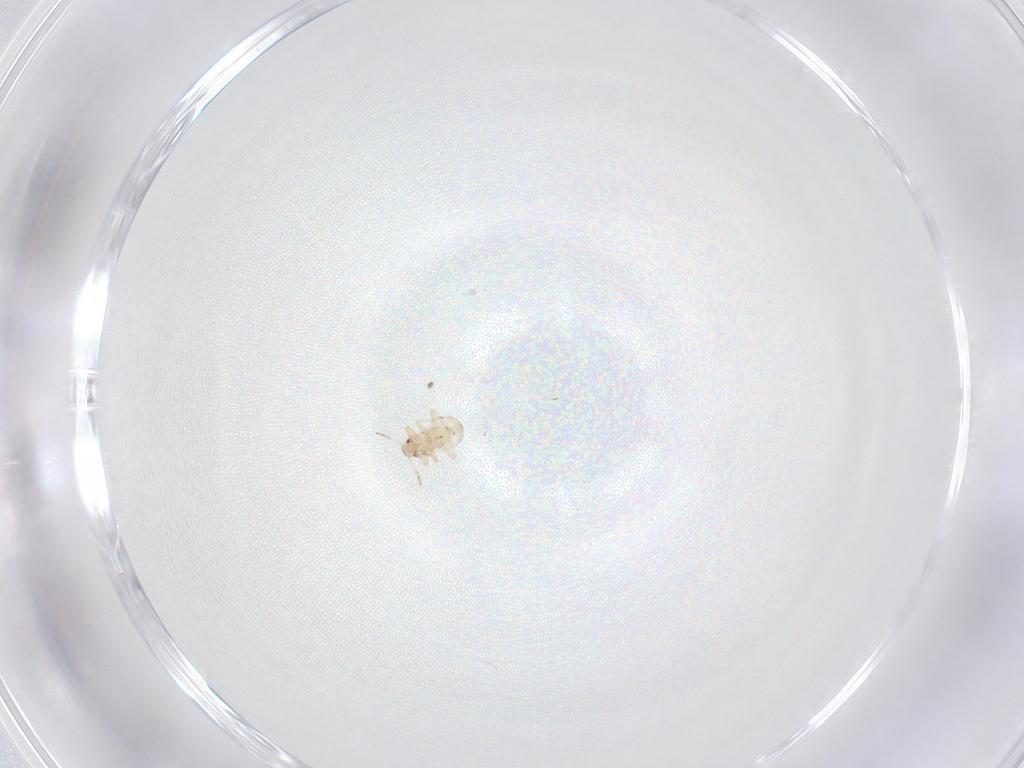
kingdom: Animalia
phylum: Arthropoda
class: Insecta
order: Hemiptera
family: Aphididae
